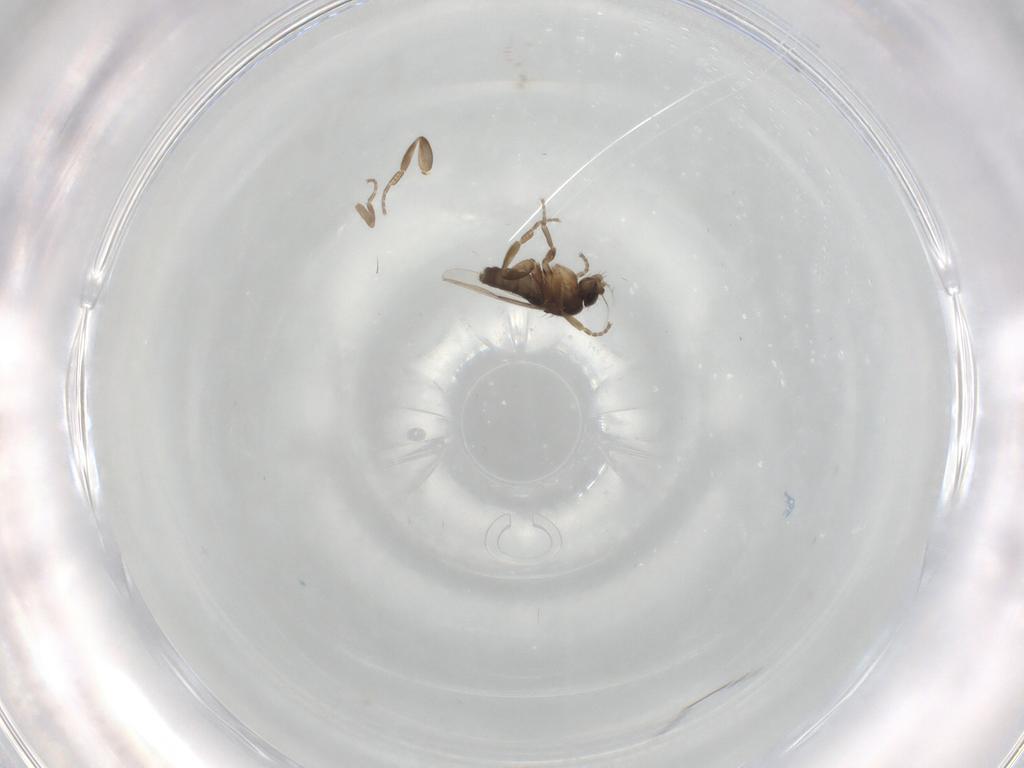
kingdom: Animalia
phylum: Arthropoda
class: Insecta
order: Diptera
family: Phoridae
